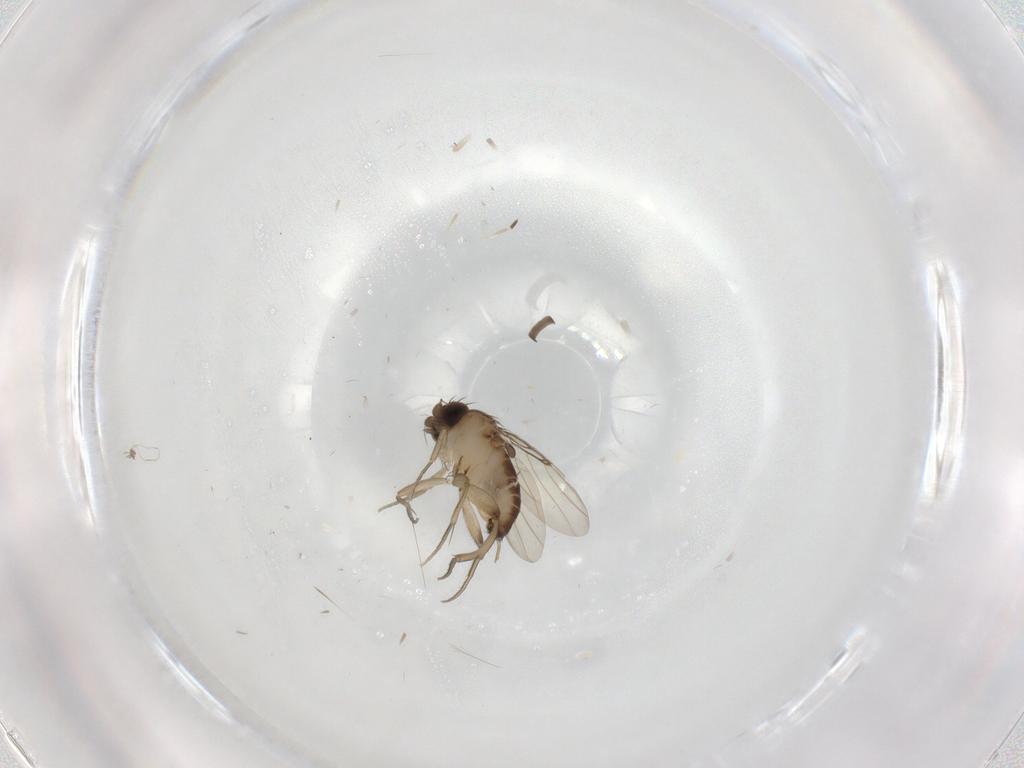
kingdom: Animalia
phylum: Arthropoda
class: Insecta
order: Diptera
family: Phoridae
